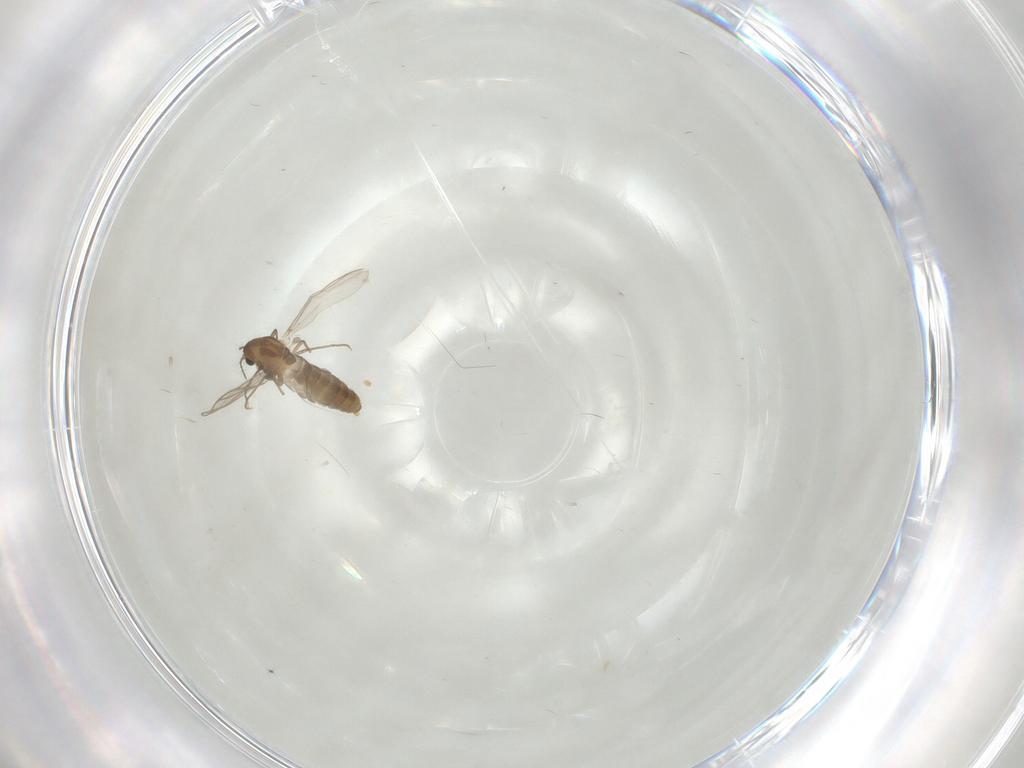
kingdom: Animalia
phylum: Arthropoda
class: Insecta
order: Diptera
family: Chironomidae
